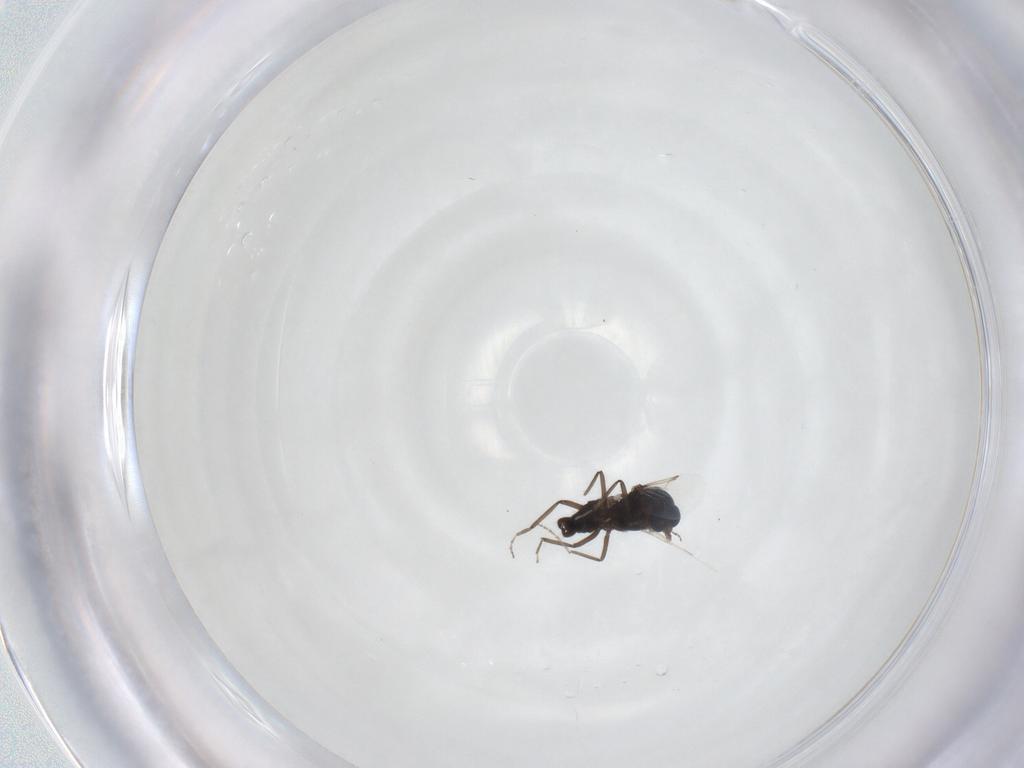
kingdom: Animalia
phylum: Arthropoda
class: Insecta
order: Diptera
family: Ceratopogonidae
